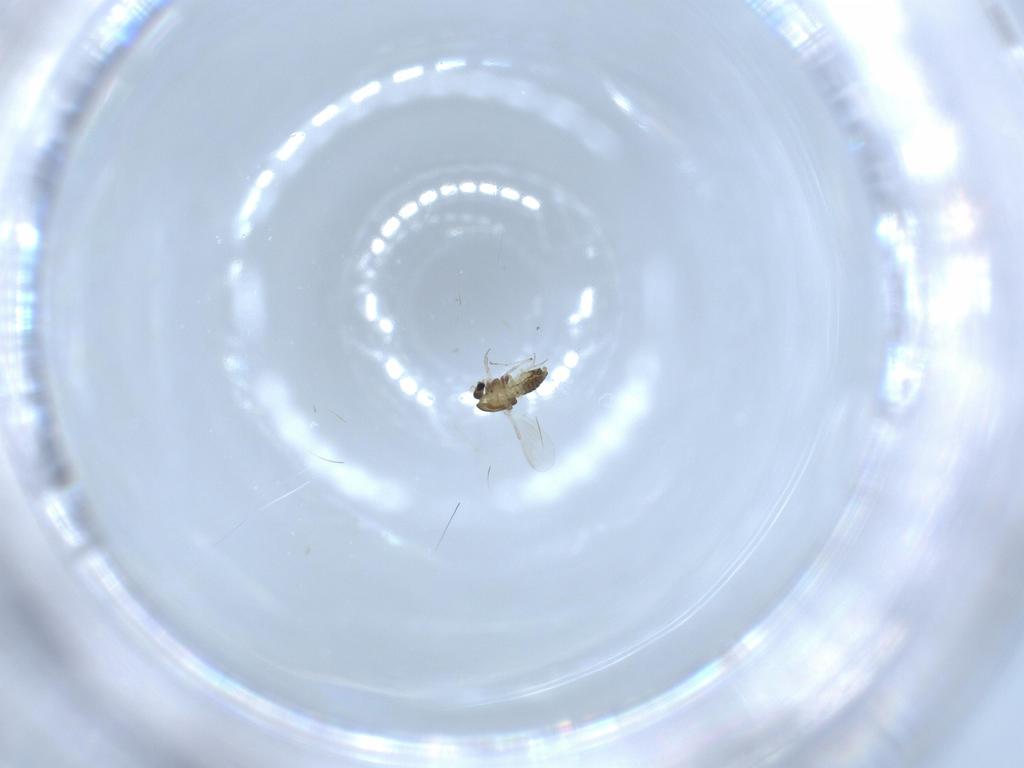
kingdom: Animalia
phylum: Arthropoda
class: Insecta
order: Diptera
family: Chironomidae
